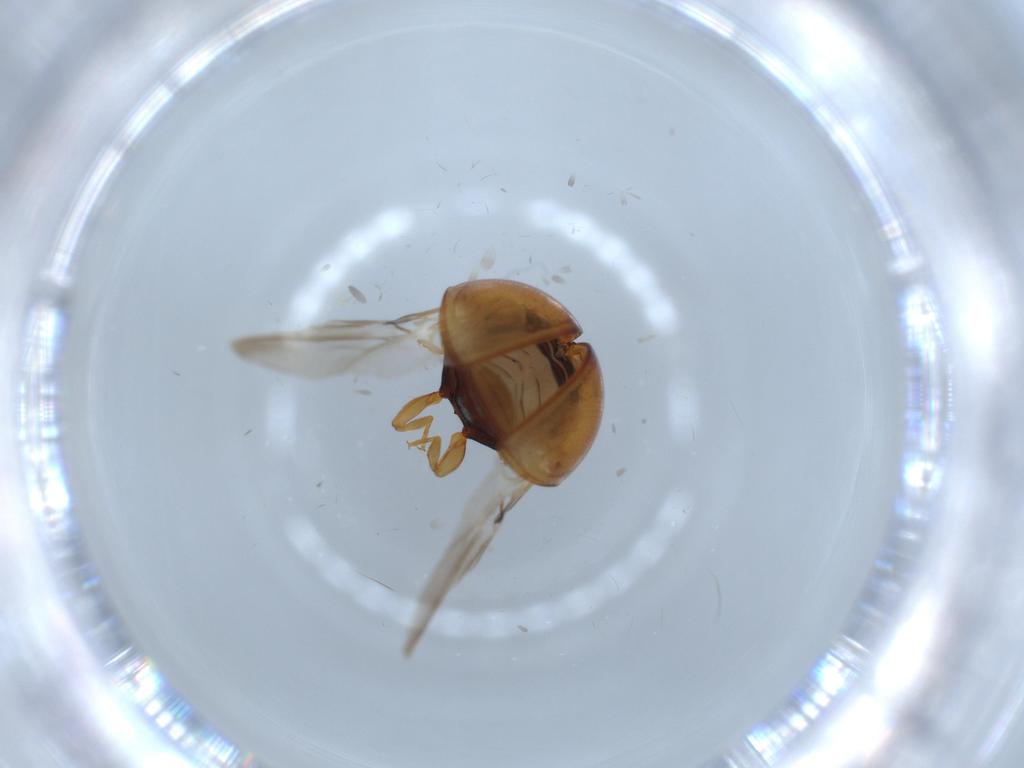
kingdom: Animalia
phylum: Arthropoda
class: Insecta
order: Coleoptera
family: Coccinellidae
